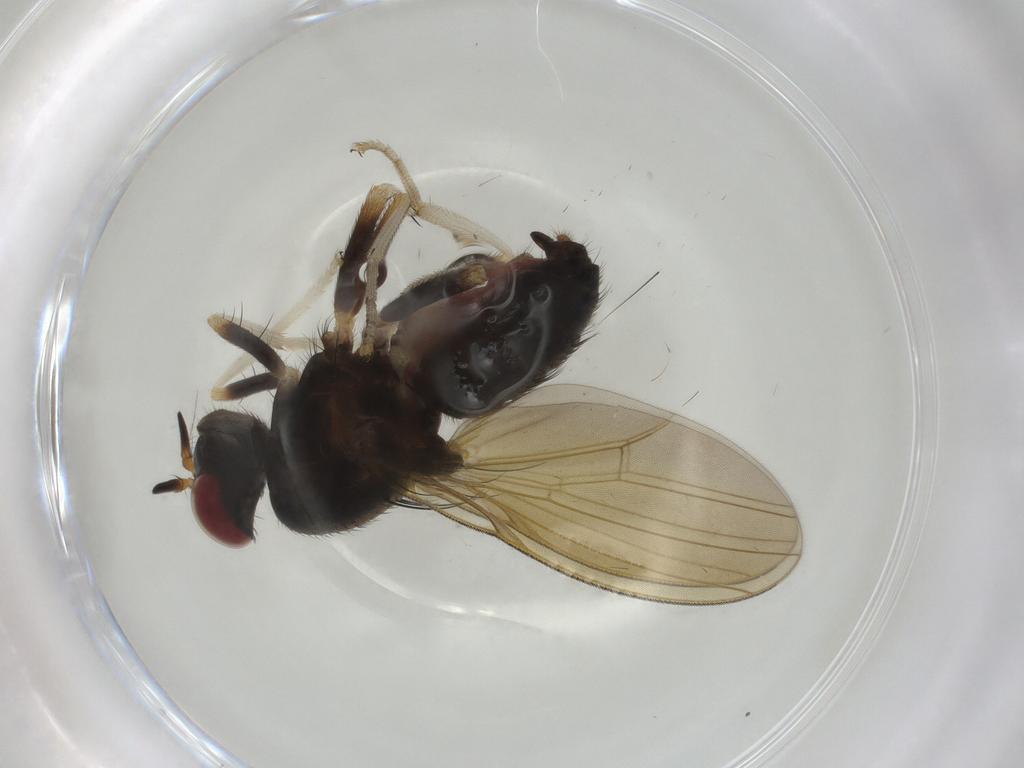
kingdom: Animalia
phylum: Arthropoda
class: Insecta
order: Diptera
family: Lauxaniidae
